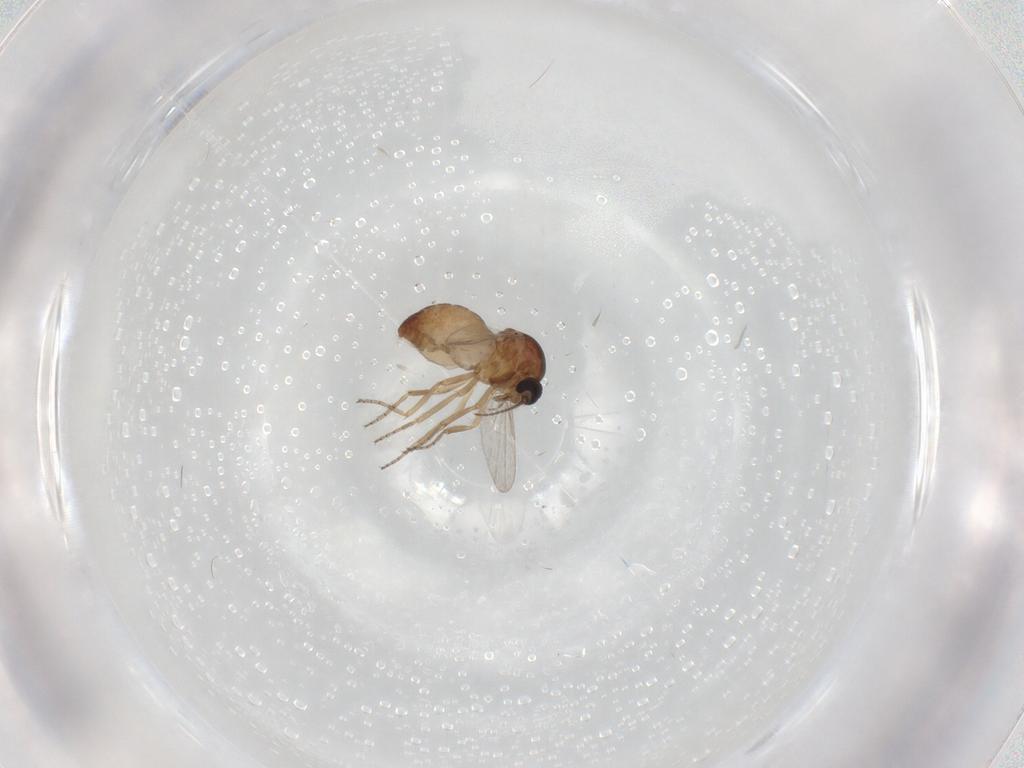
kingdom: Animalia
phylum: Arthropoda
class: Insecta
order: Diptera
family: Ceratopogonidae
